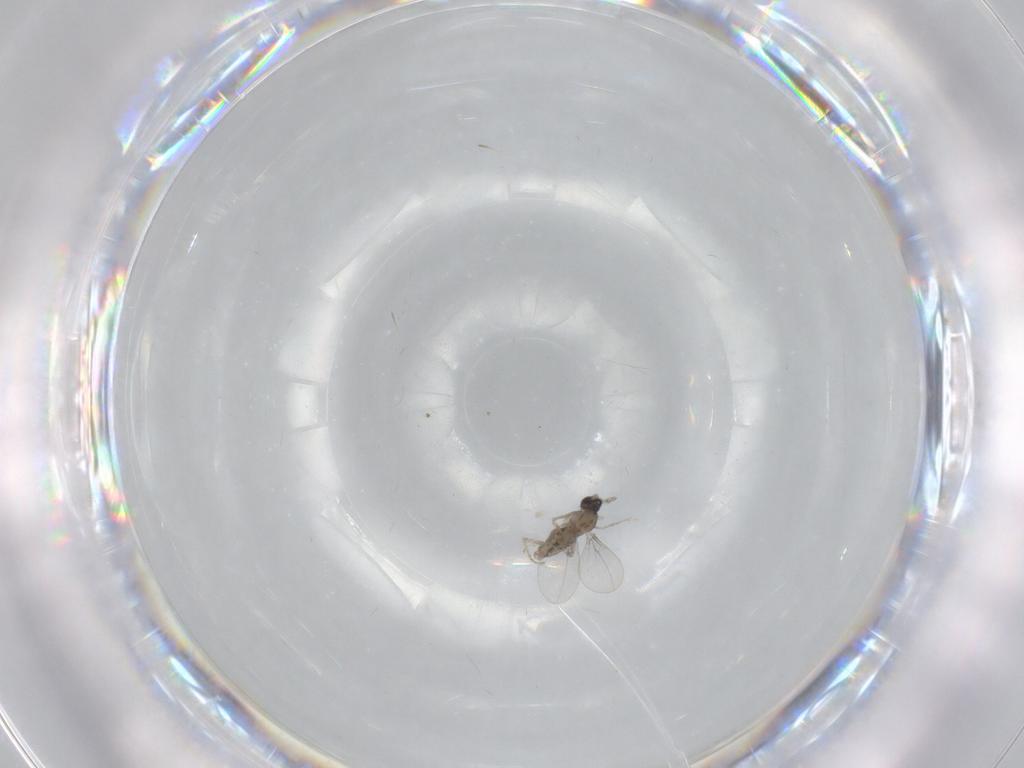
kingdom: Animalia
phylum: Arthropoda
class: Insecta
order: Diptera
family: Cecidomyiidae
